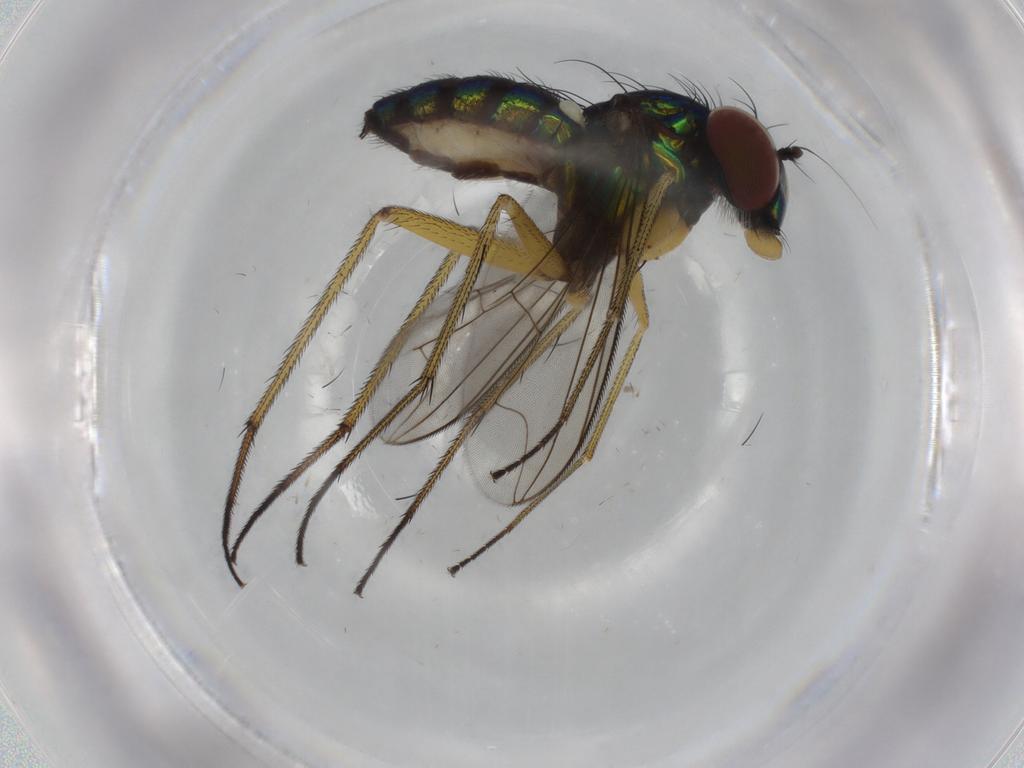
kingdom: Animalia
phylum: Arthropoda
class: Insecta
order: Diptera
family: Dolichopodidae
